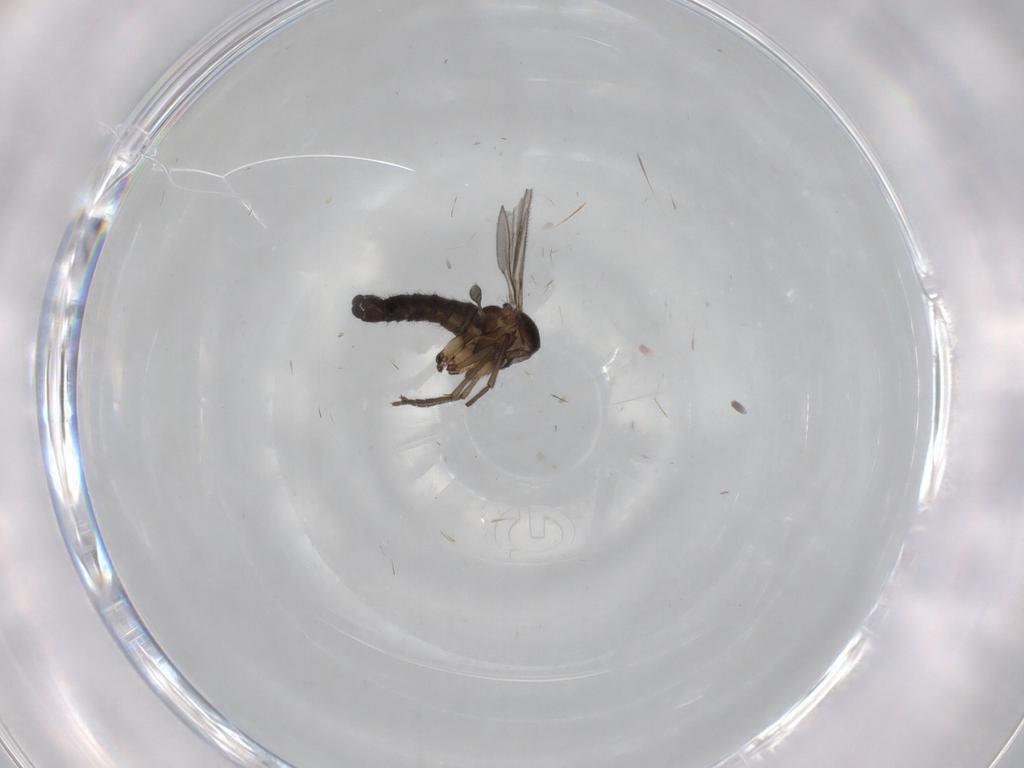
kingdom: Animalia
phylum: Arthropoda
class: Insecta
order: Diptera
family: Sciaridae
